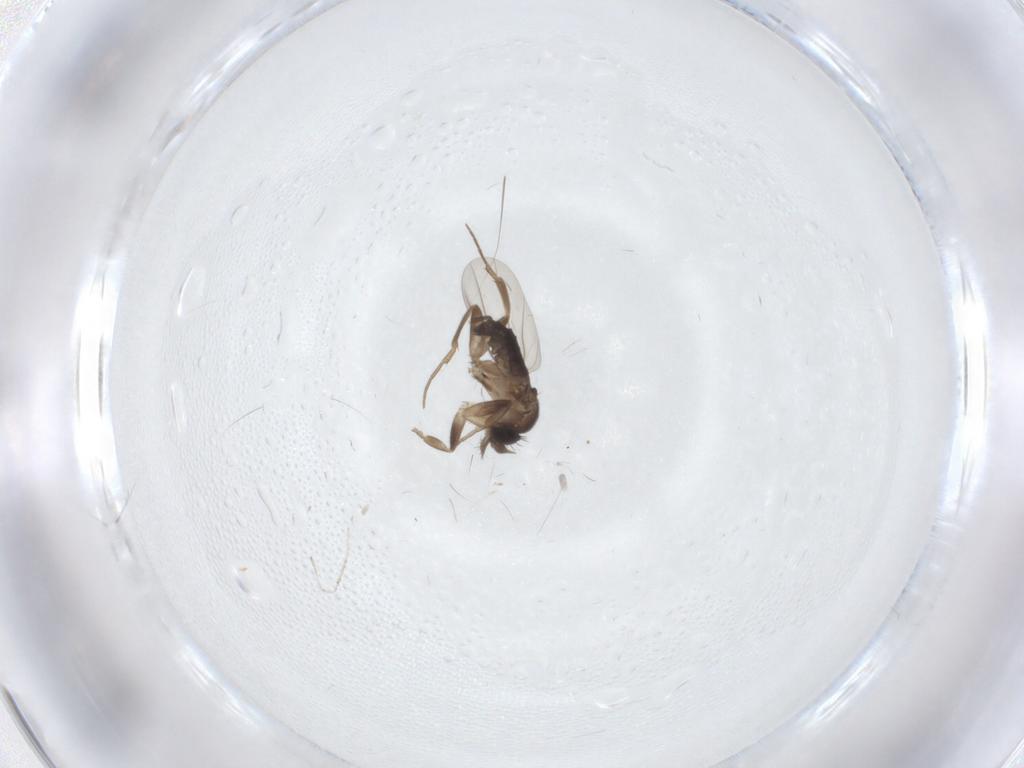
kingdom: Animalia
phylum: Arthropoda
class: Insecta
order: Diptera
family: Phoridae
